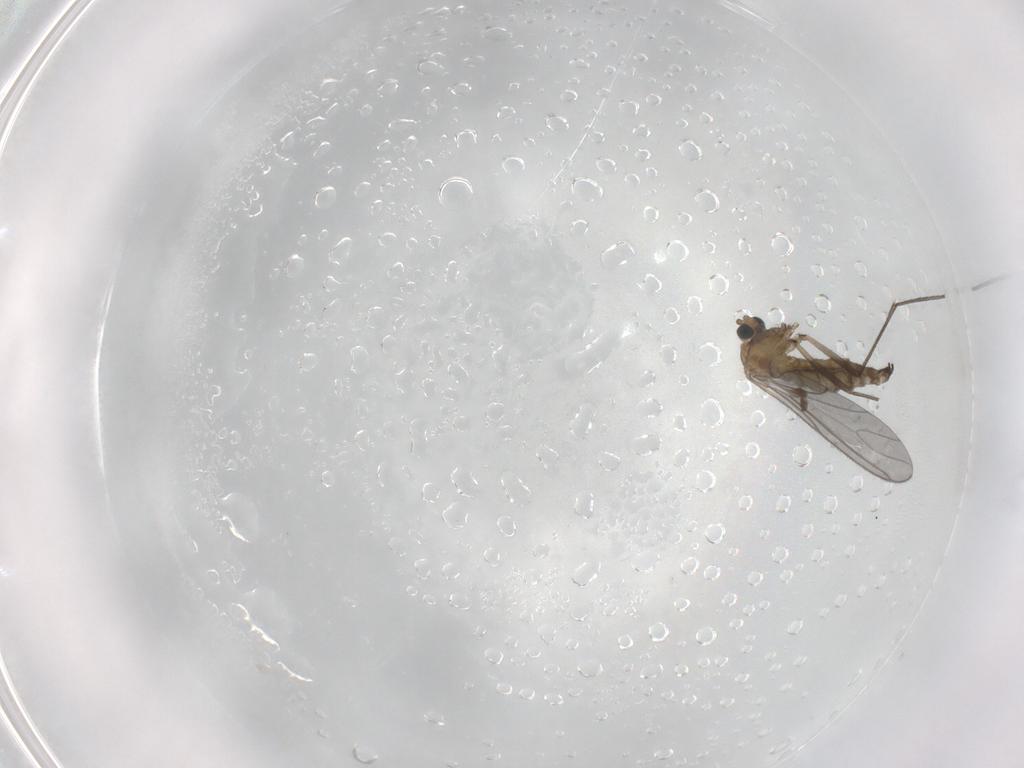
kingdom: Animalia
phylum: Arthropoda
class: Insecta
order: Diptera
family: Sciaridae
